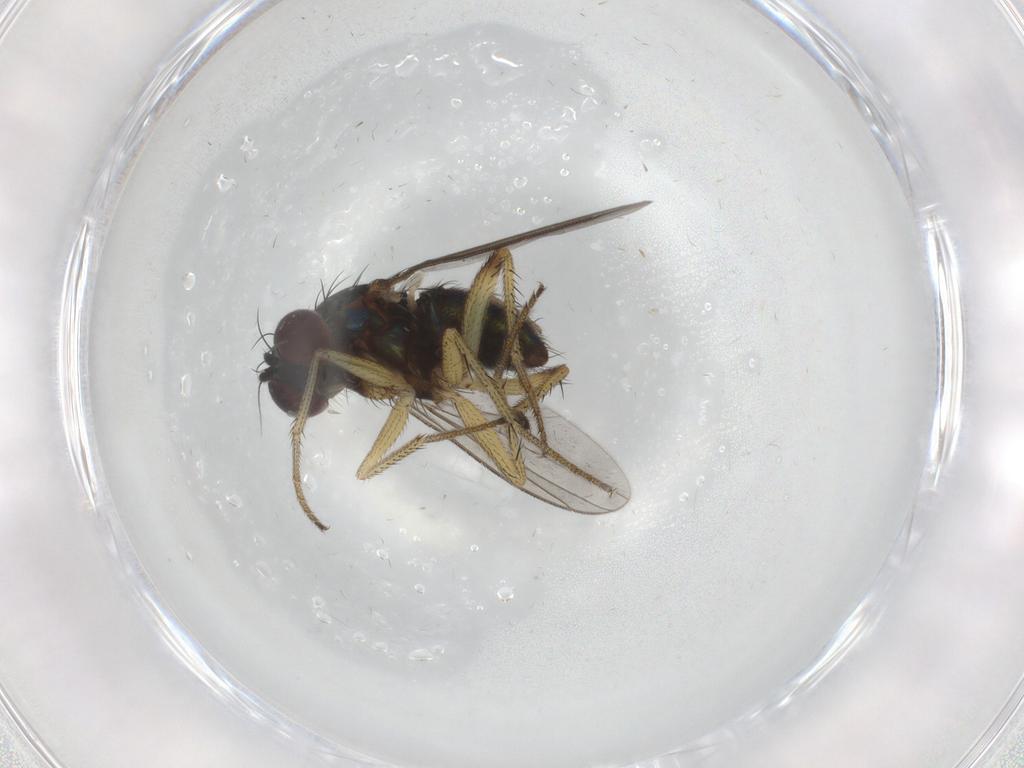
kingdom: Animalia
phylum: Arthropoda
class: Insecta
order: Diptera
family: Dolichopodidae
